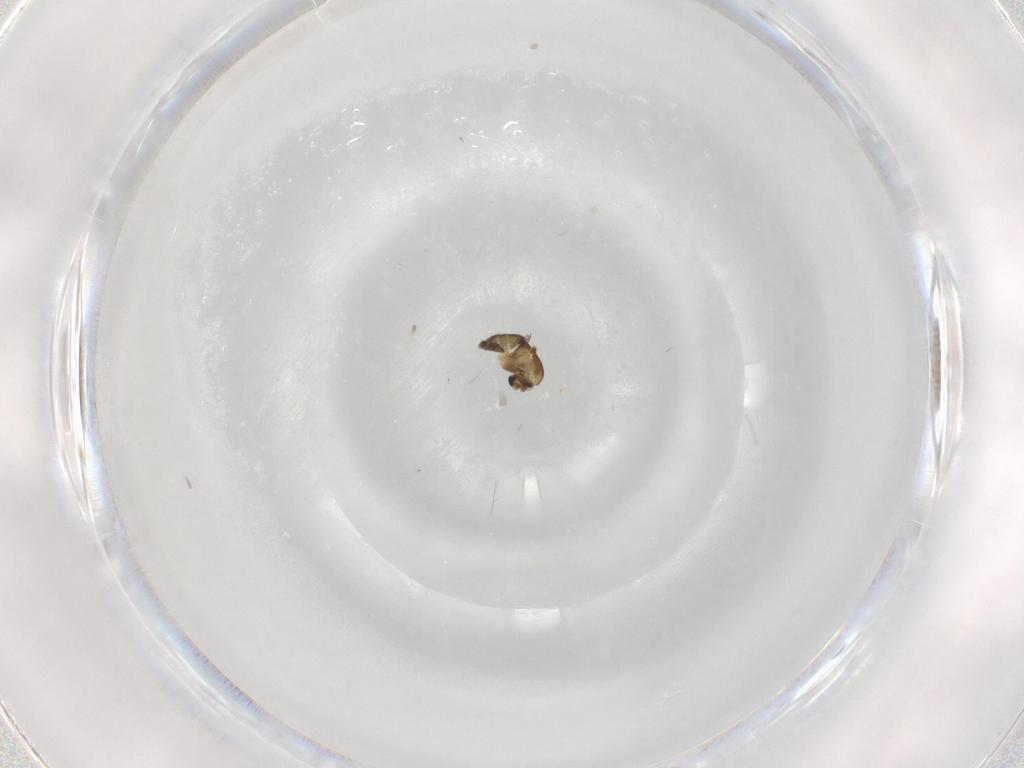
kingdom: Animalia
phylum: Arthropoda
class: Insecta
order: Diptera
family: Chironomidae
